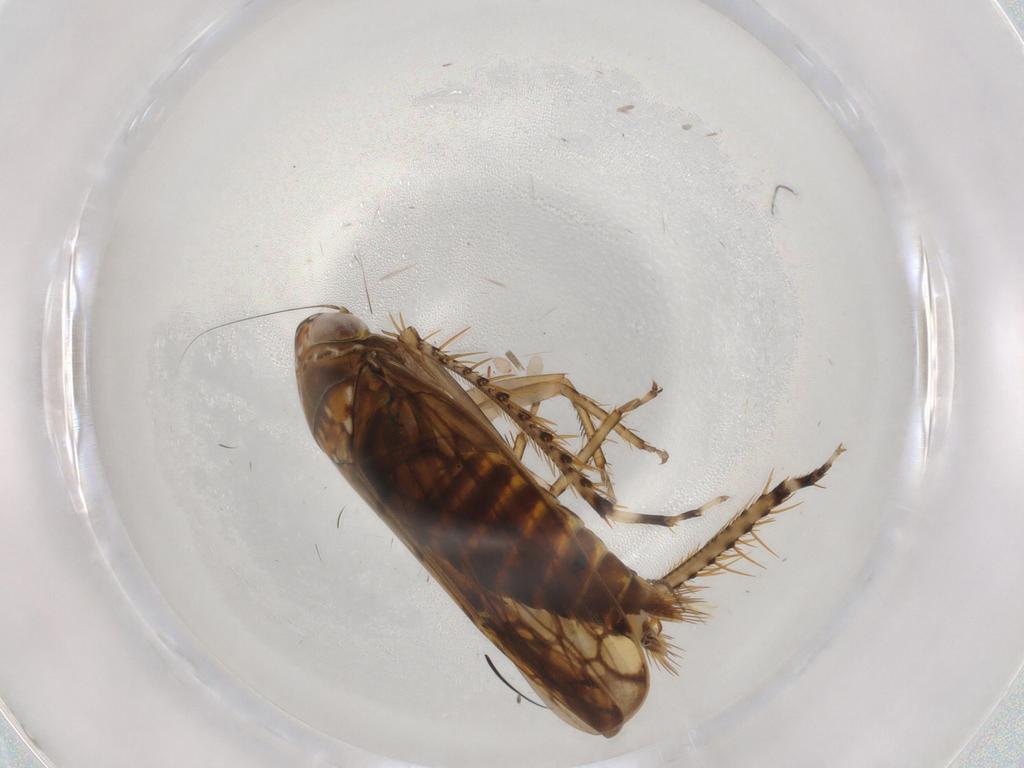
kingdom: Animalia
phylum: Arthropoda
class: Insecta
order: Hemiptera
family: Cicadellidae
